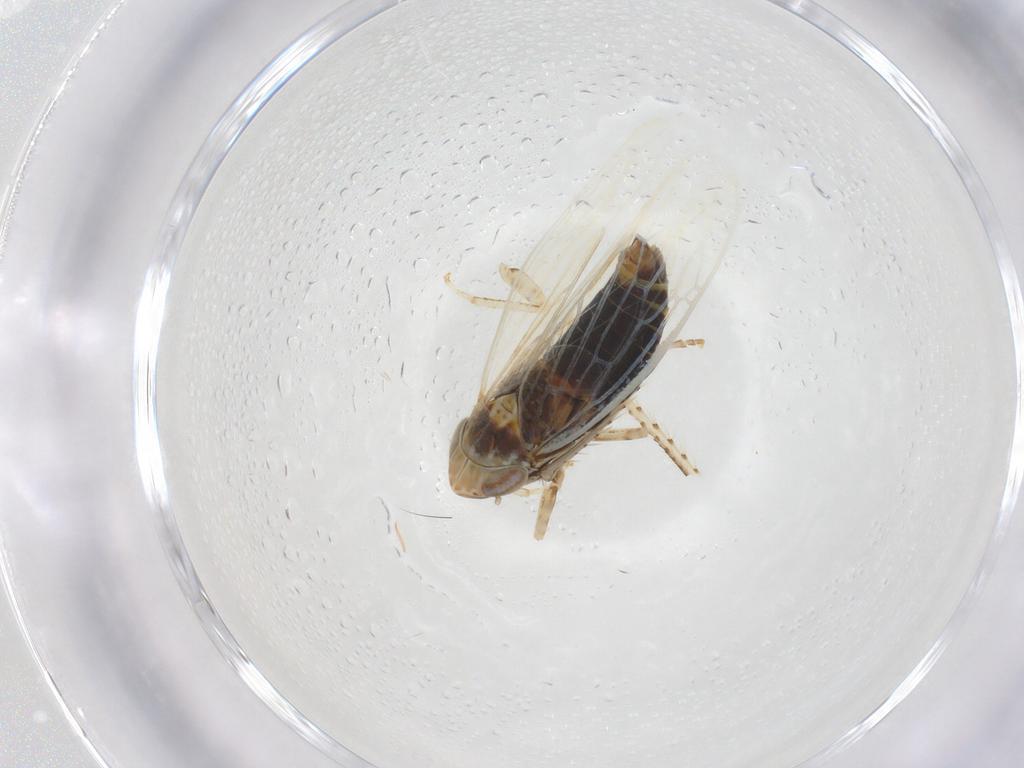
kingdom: Animalia
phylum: Arthropoda
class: Insecta
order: Hemiptera
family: Cicadellidae
